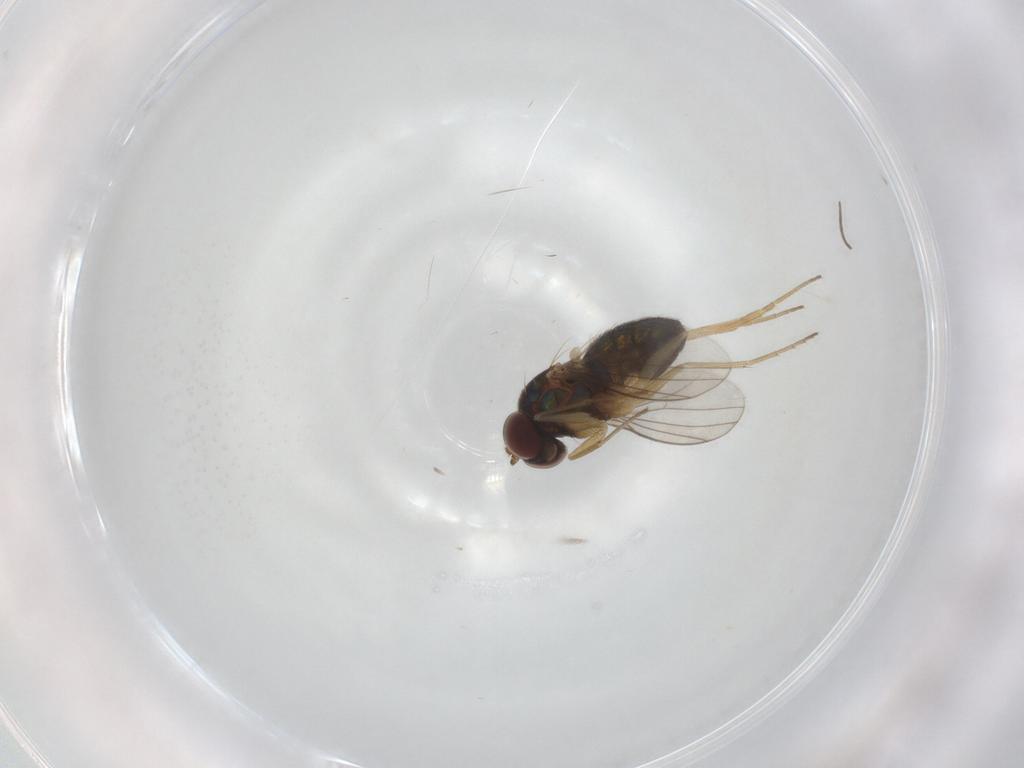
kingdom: Animalia
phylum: Arthropoda
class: Insecta
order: Diptera
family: Dolichopodidae
